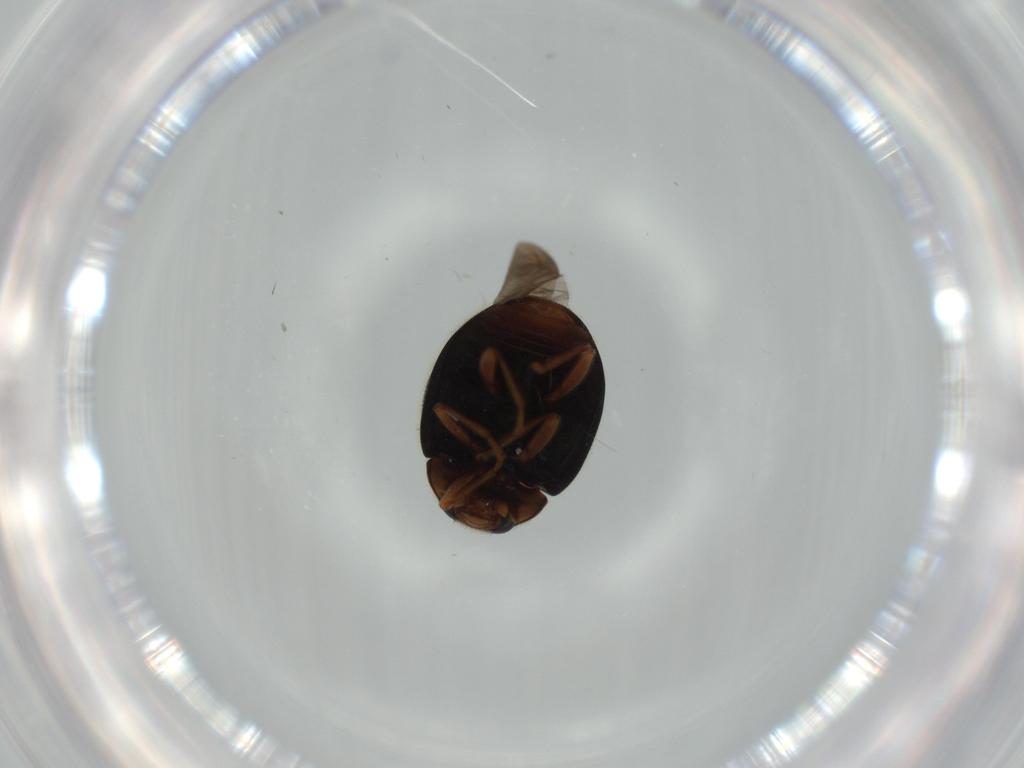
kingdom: Animalia
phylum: Arthropoda
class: Insecta
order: Coleoptera
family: Coccinellidae
